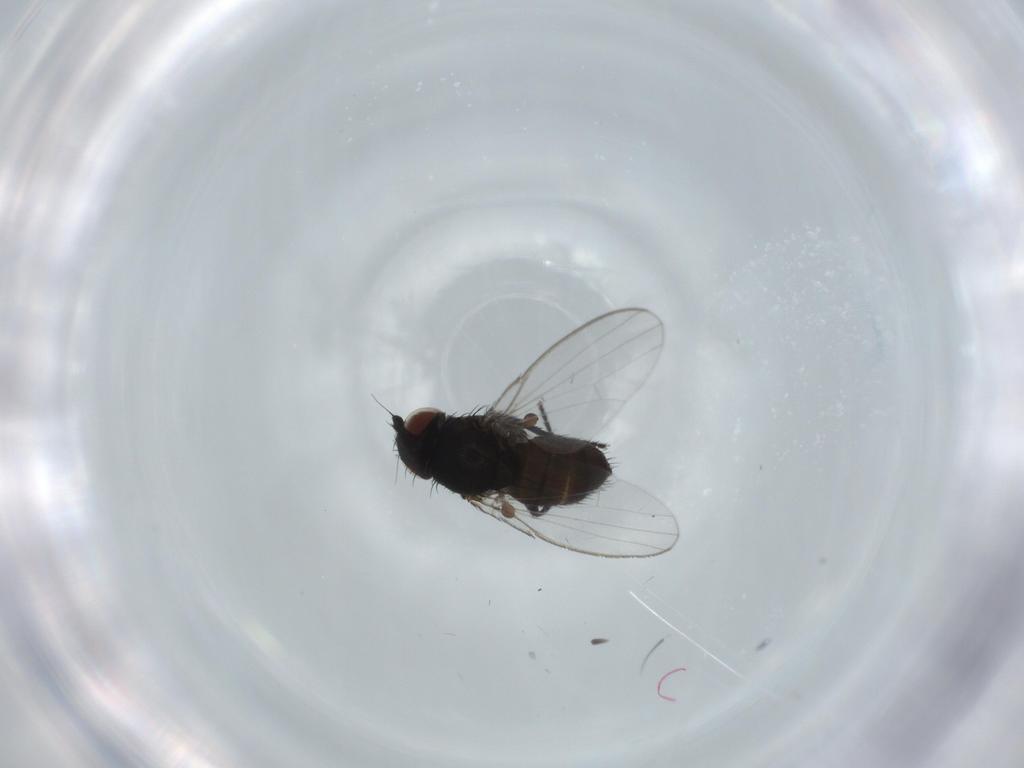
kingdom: Animalia
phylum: Arthropoda
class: Insecta
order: Diptera
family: Milichiidae
